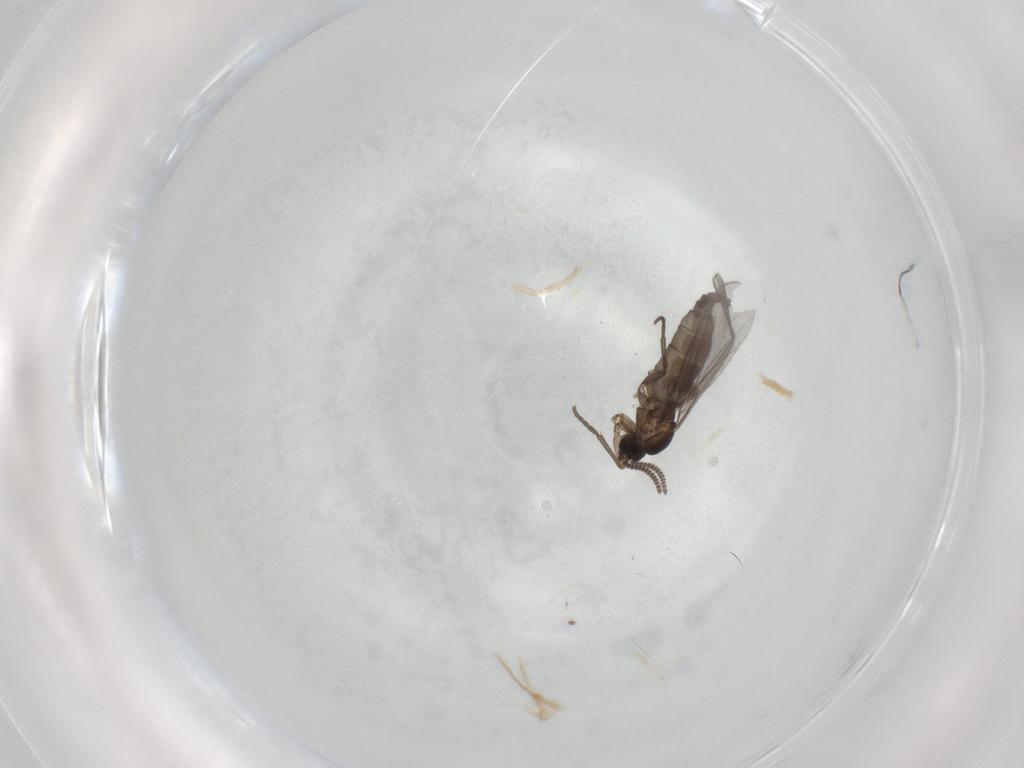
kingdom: Animalia
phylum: Arthropoda
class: Insecta
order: Diptera
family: Sciaridae
